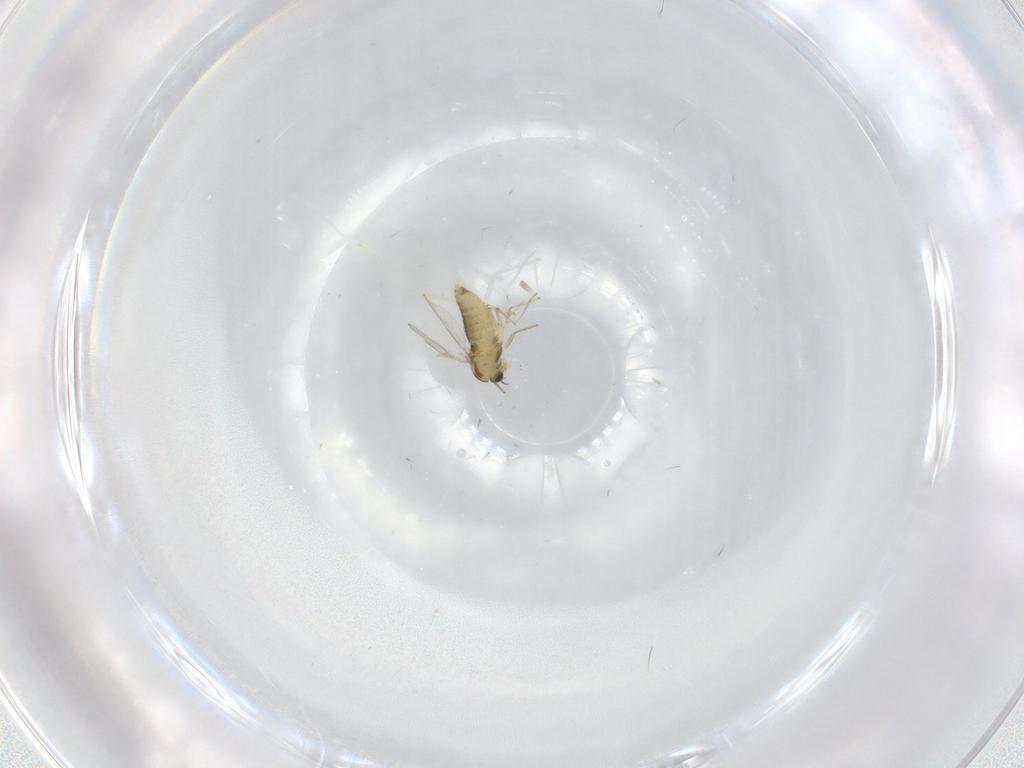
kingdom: Animalia
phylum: Arthropoda
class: Insecta
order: Diptera
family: Chironomidae
